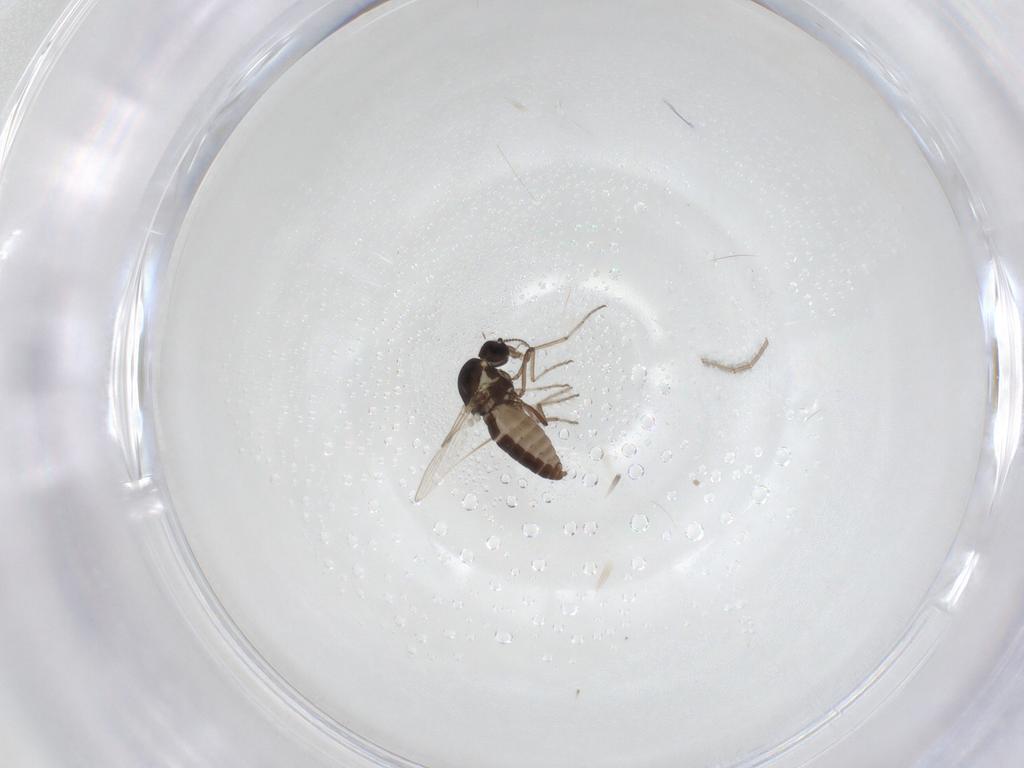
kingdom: Animalia
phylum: Arthropoda
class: Insecta
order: Diptera
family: Ceratopogonidae
